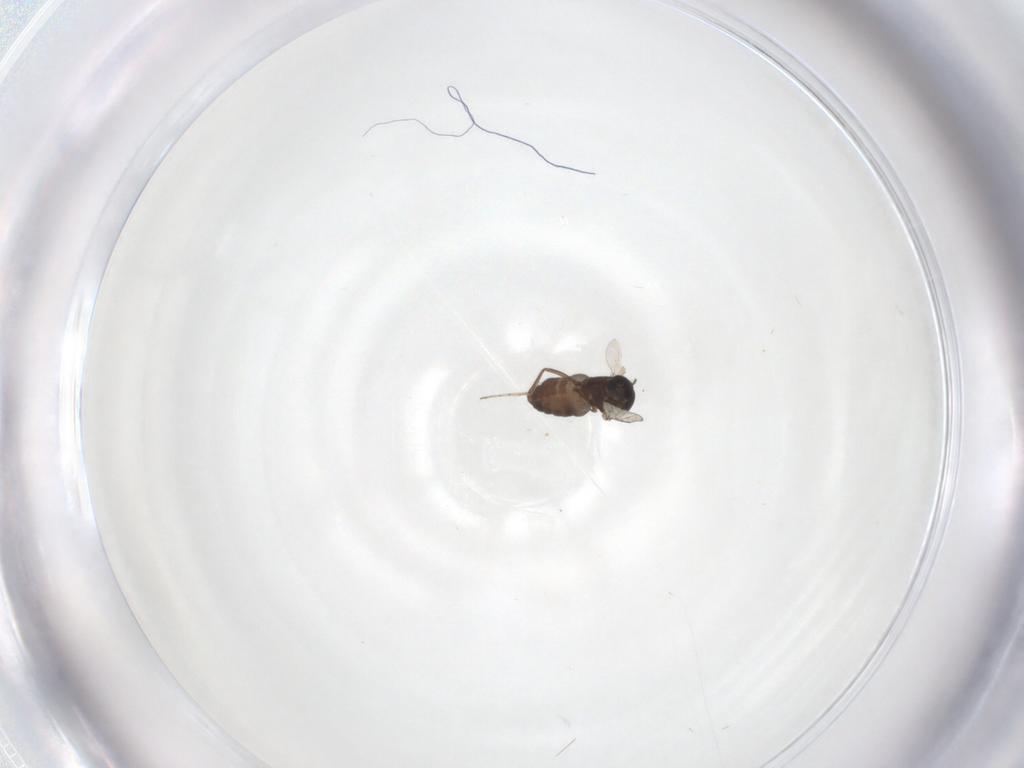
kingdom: Animalia
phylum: Arthropoda
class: Insecta
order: Diptera
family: Ceratopogonidae
